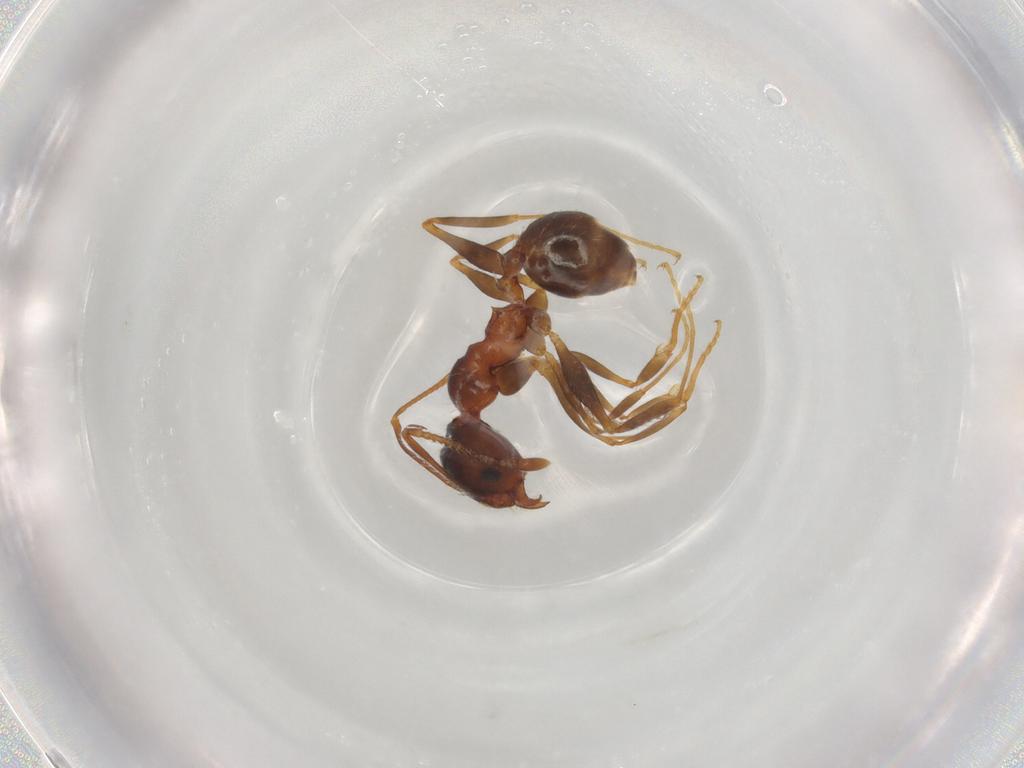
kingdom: Animalia
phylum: Arthropoda
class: Insecta
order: Hymenoptera
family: Formicidae
